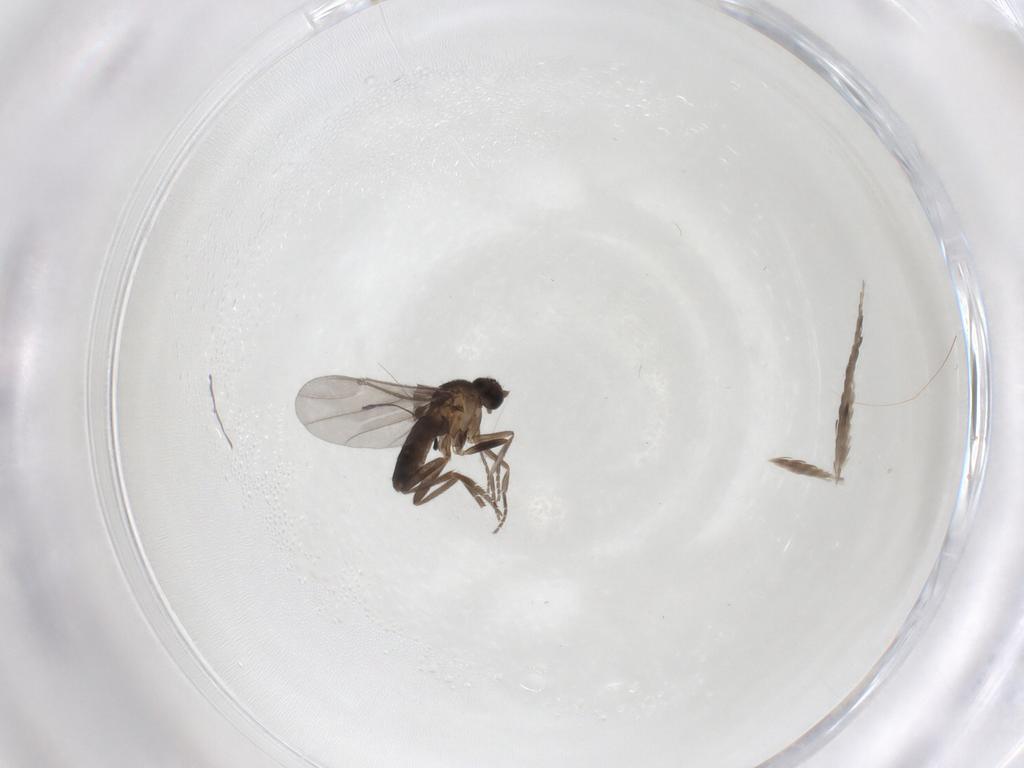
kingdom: Animalia
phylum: Arthropoda
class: Insecta
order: Diptera
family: Phoridae
